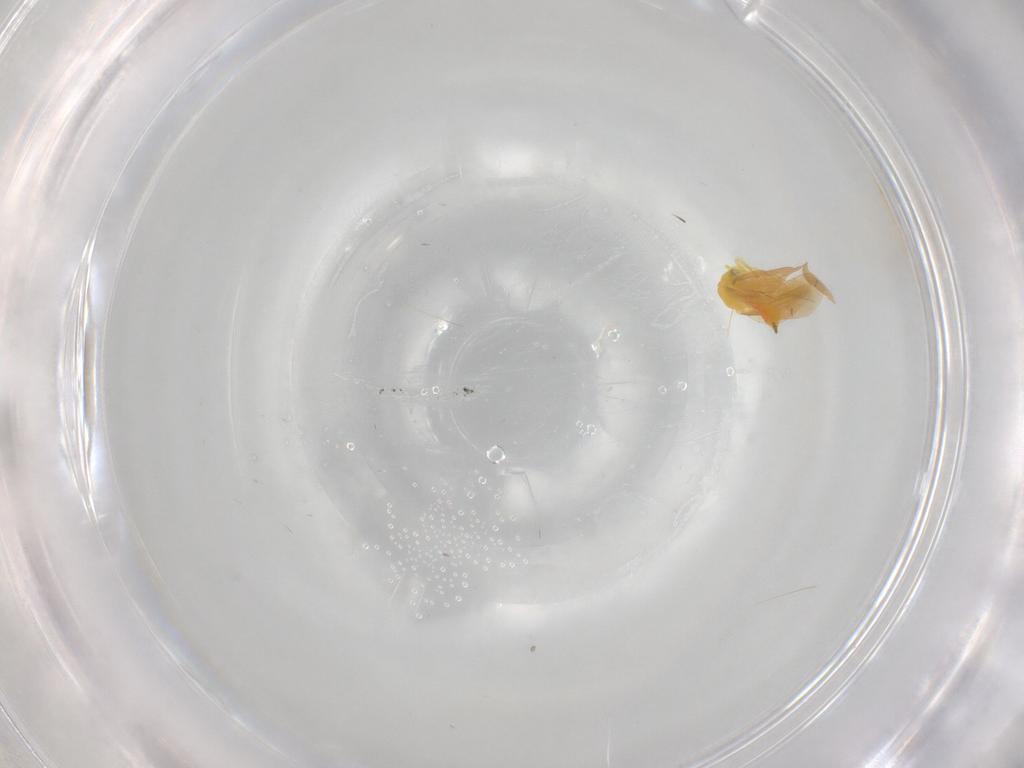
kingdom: Animalia
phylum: Arthropoda
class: Insecta
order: Hemiptera
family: Aleyrodidae
